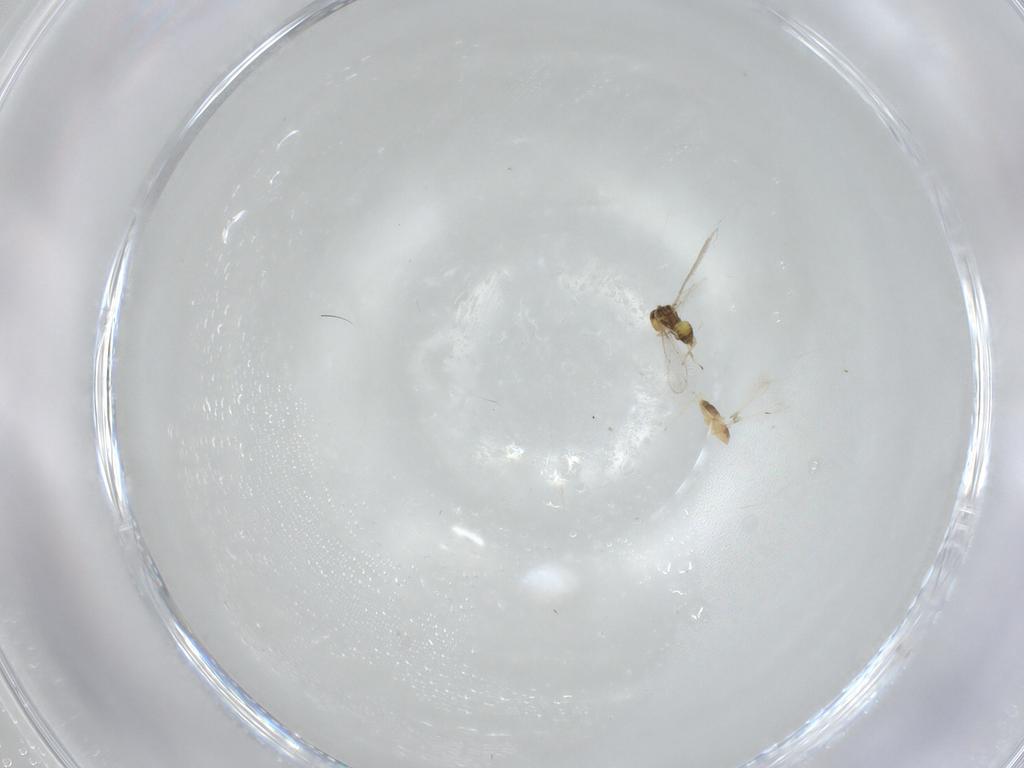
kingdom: Animalia
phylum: Arthropoda
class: Insecta
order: Hymenoptera
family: Mymaridae
